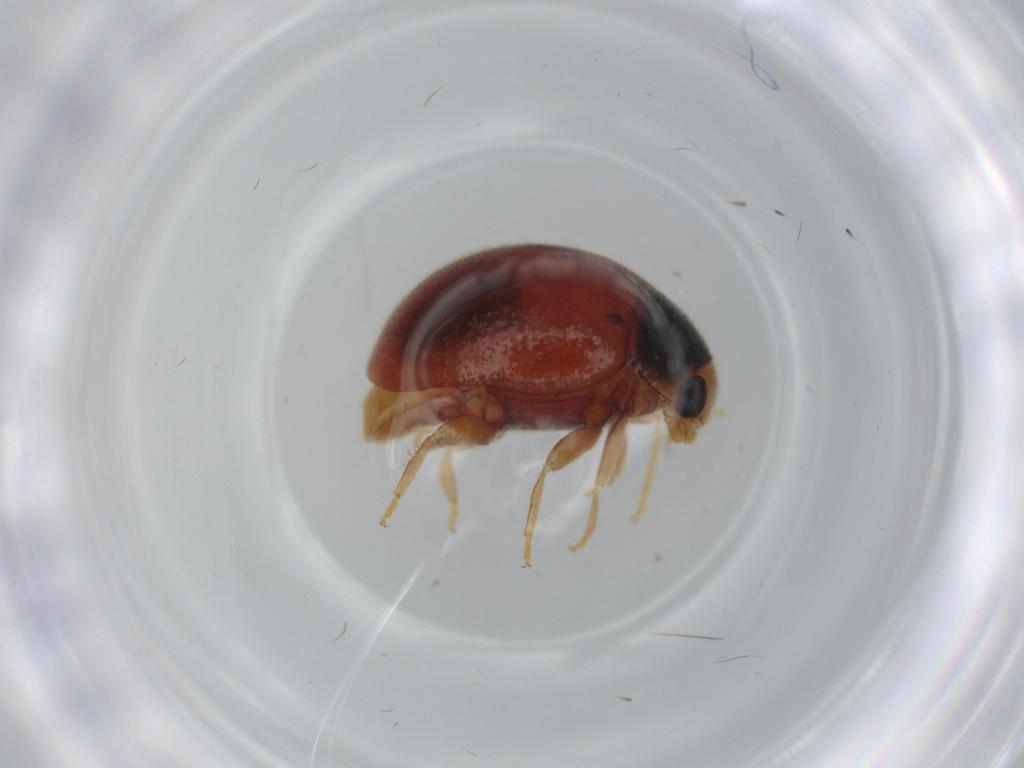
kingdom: Animalia
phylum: Arthropoda
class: Insecta
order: Coleoptera
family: Coccinellidae
